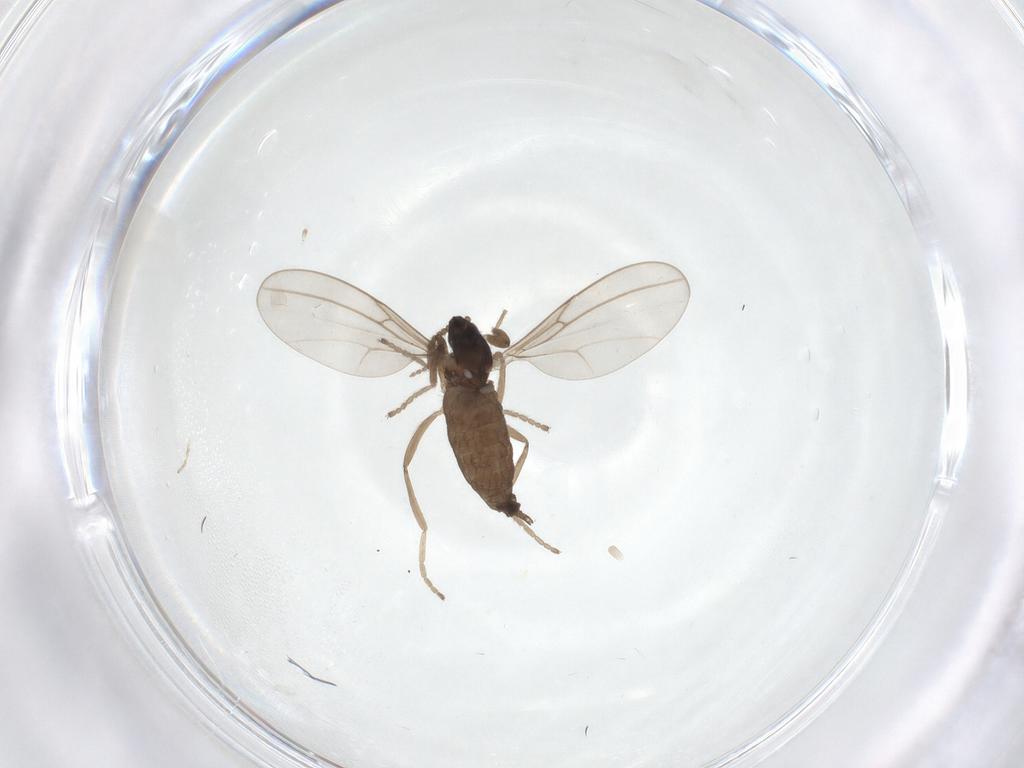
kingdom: Animalia
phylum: Arthropoda
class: Insecta
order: Diptera
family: Cecidomyiidae
